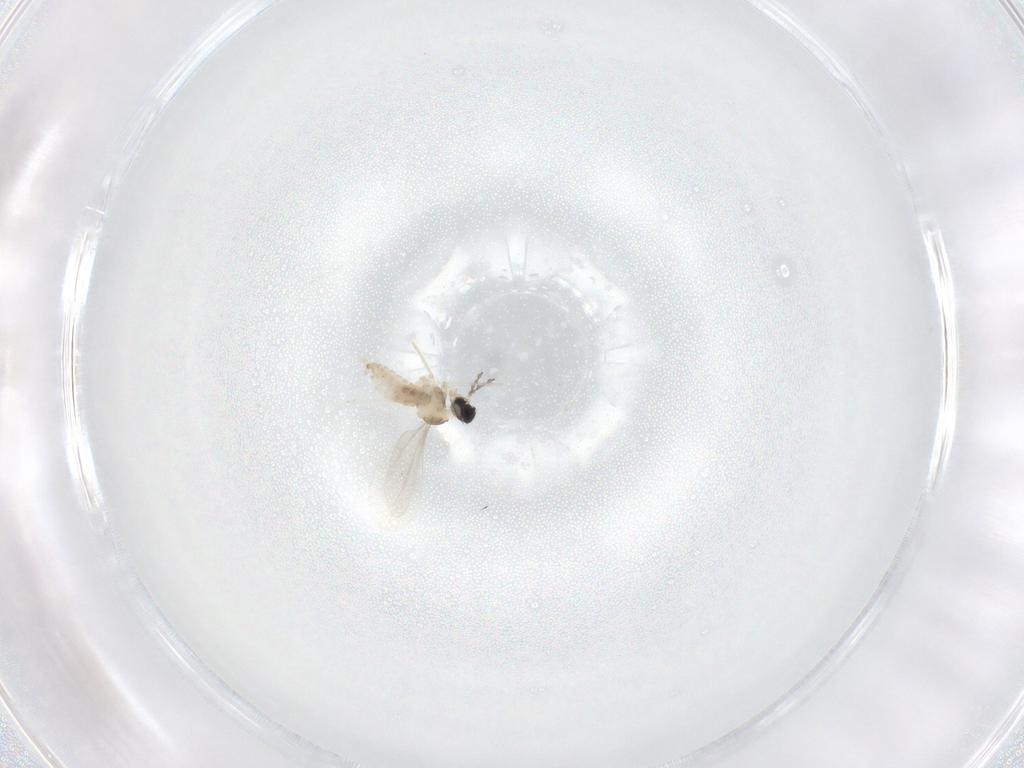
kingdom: Animalia
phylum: Arthropoda
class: Insecta
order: Diptera
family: Cecidomyiidae
